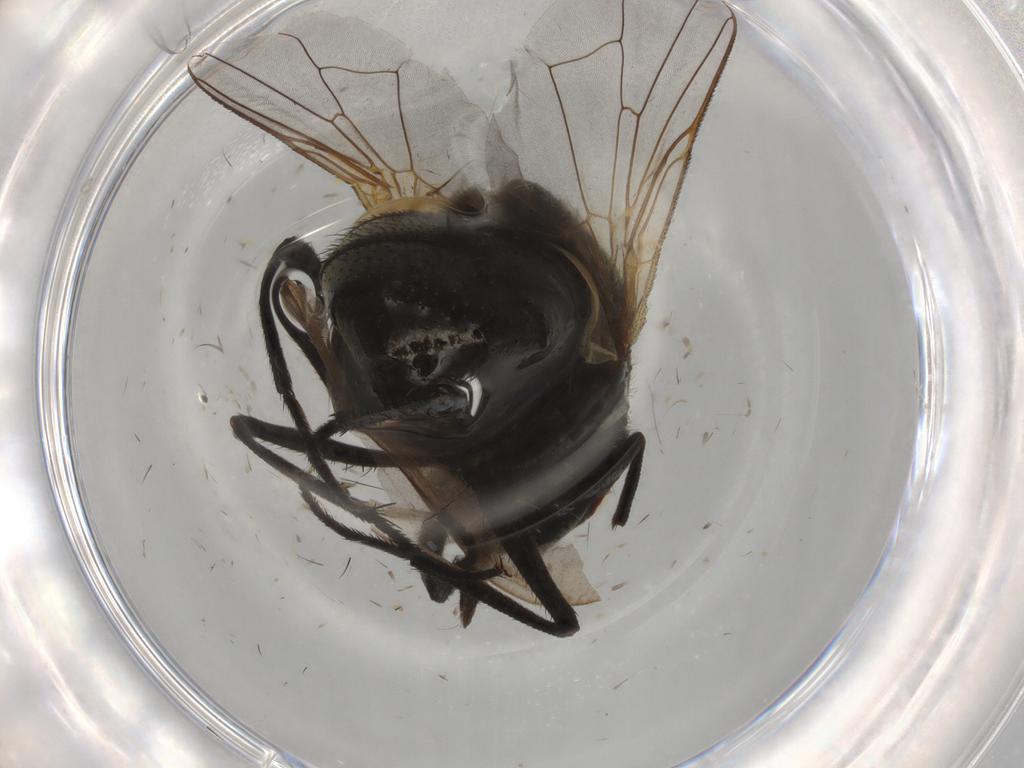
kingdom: Animalia
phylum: Arthropoda
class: Insecta
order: Diptera
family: Muscidae
